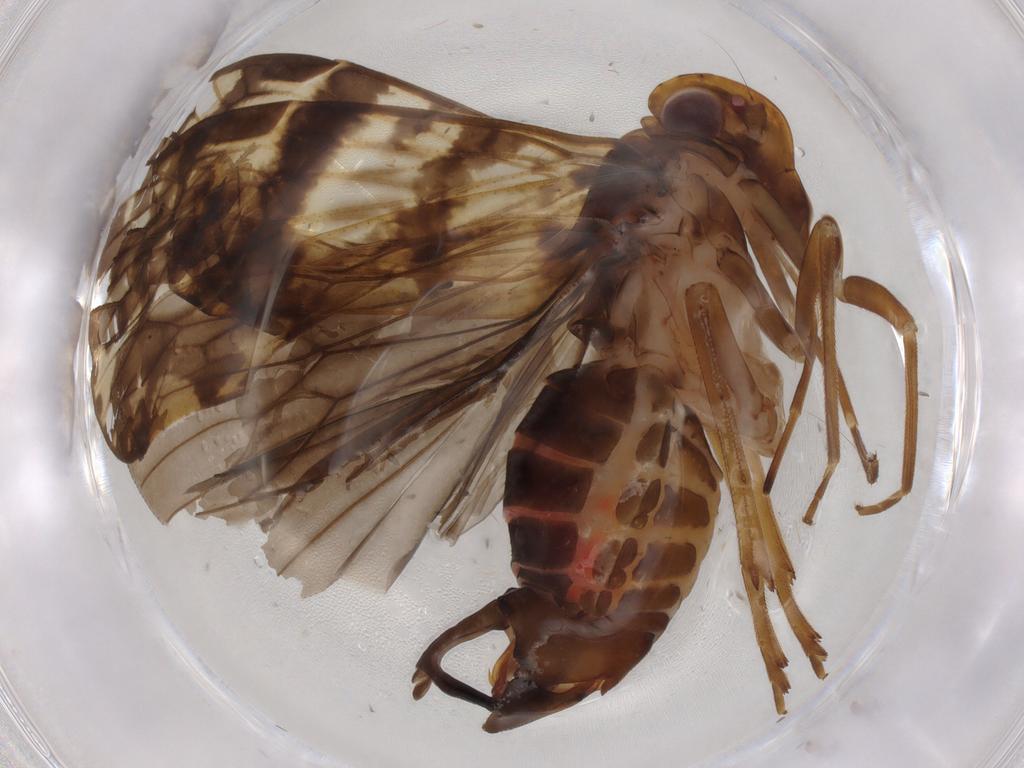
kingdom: Animalia
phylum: Arthropoda
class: Insecta
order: Hemiptera
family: Cixiidae
